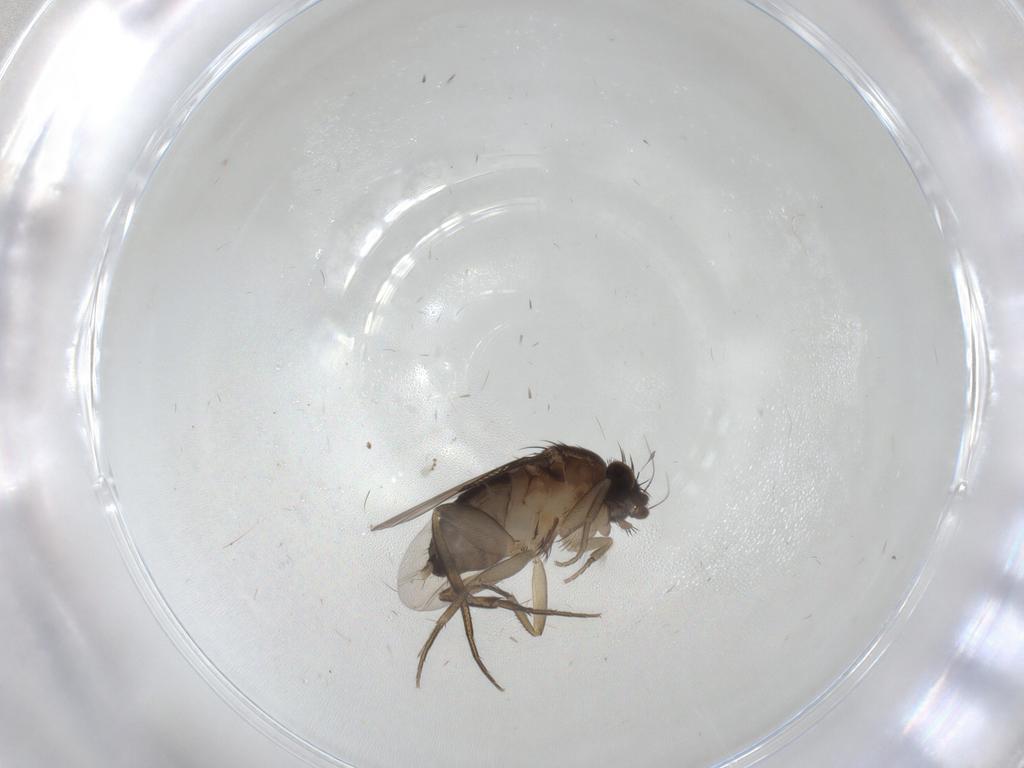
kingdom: Animalia
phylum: Arthropoda
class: Insecta
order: Diptera
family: Phoridae
